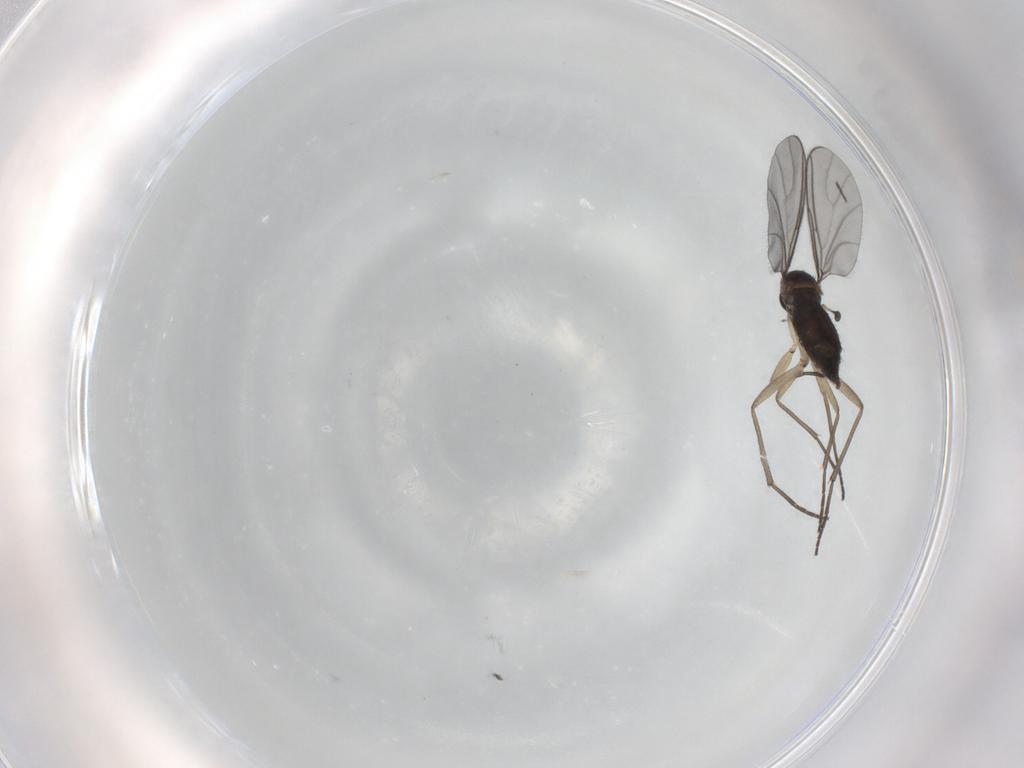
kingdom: Animalia
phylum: Arthropoda
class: Insecta
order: Diptera
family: Sciaridae
